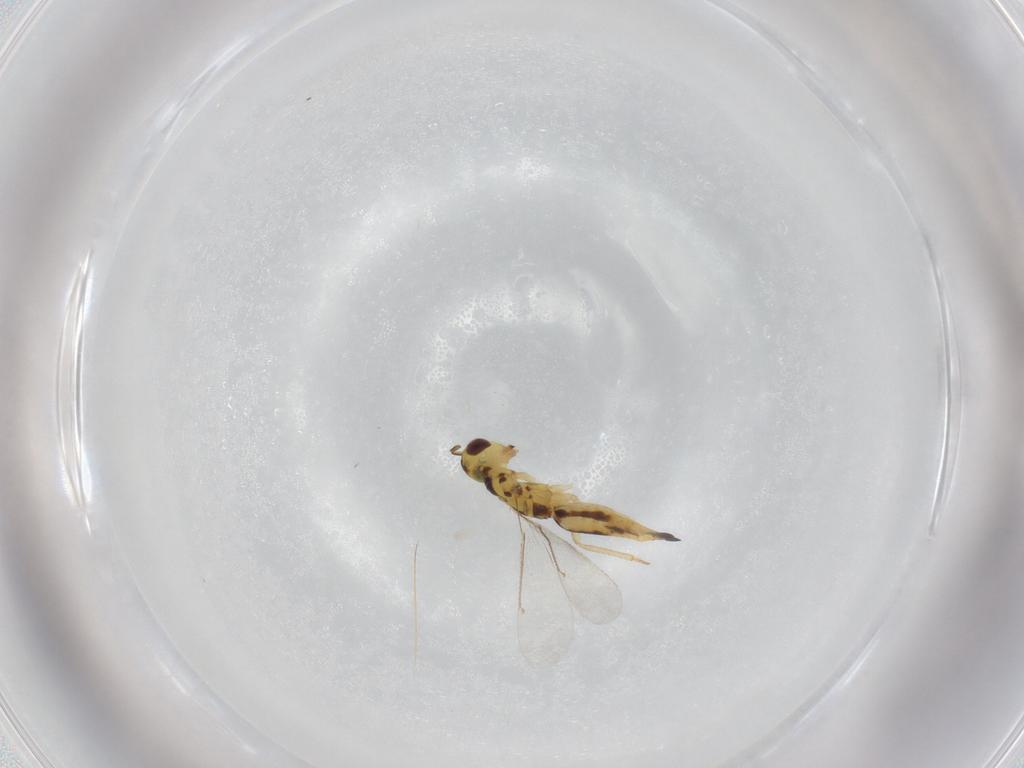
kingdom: Animalia
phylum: Arthropoda
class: Insecta
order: Hymenoptera
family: Eulophidae
